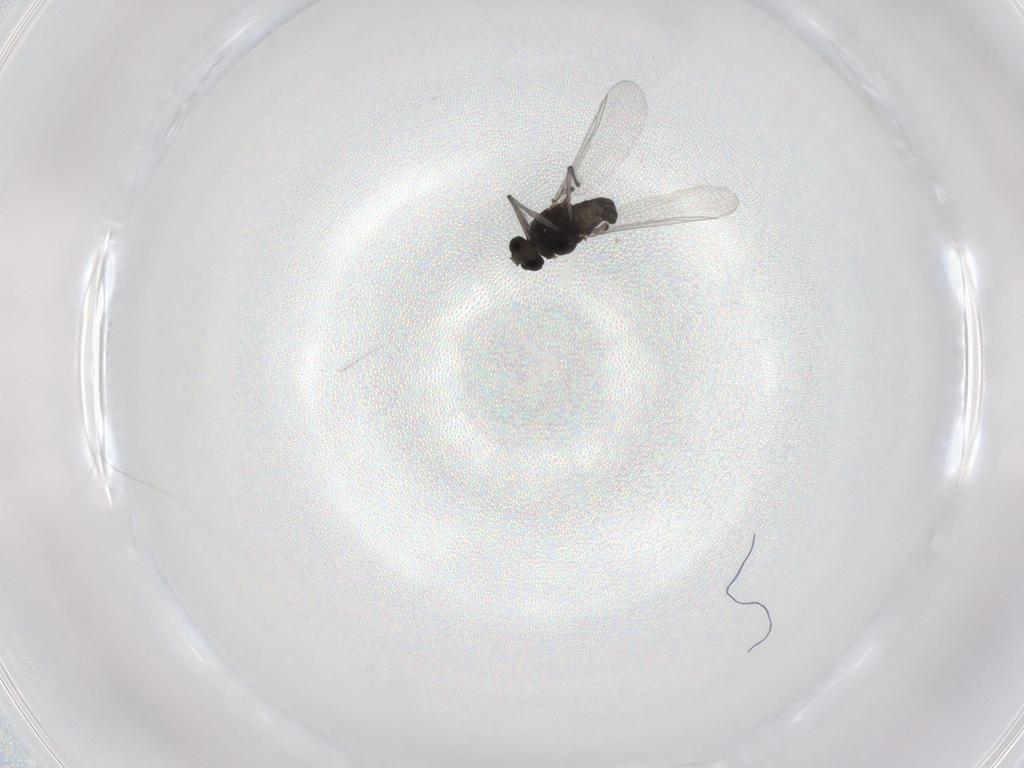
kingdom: Animalia
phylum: Arthropoda
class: Insecta
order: Diptera
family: Chironomidae
